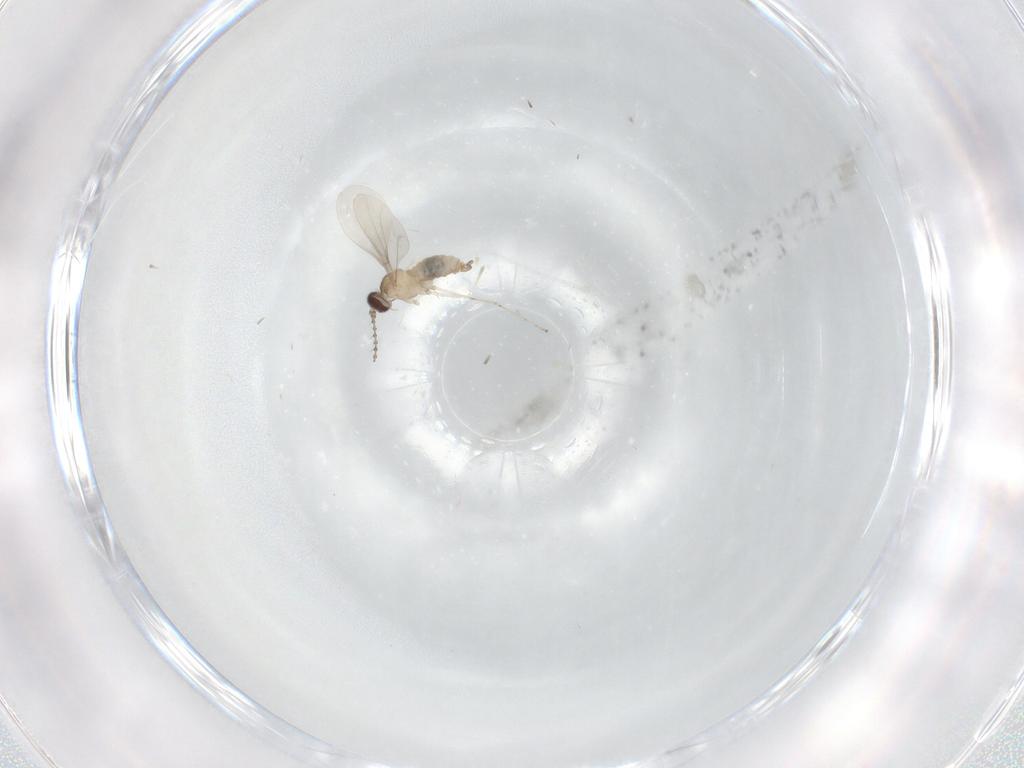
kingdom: Animalia
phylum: Arthropoda
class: Insecta
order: Diptera
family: Cecidomyiidae
